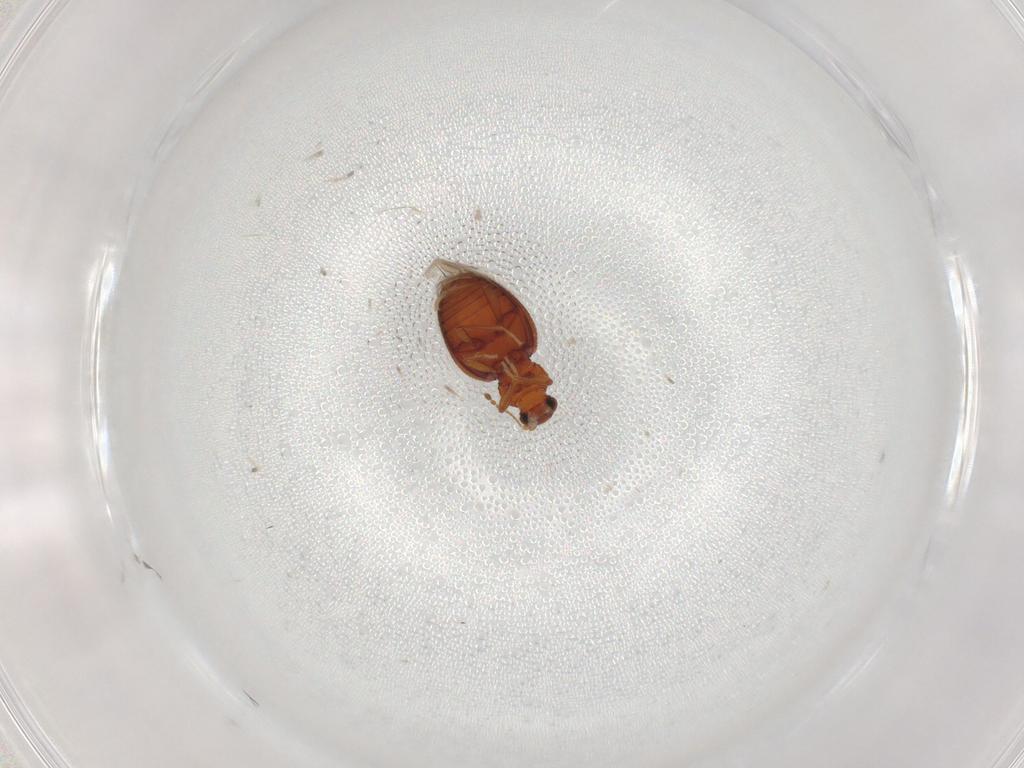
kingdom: Animalia
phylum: Arthropoda
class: Insecta
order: Coleoptera
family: Latridiidae
